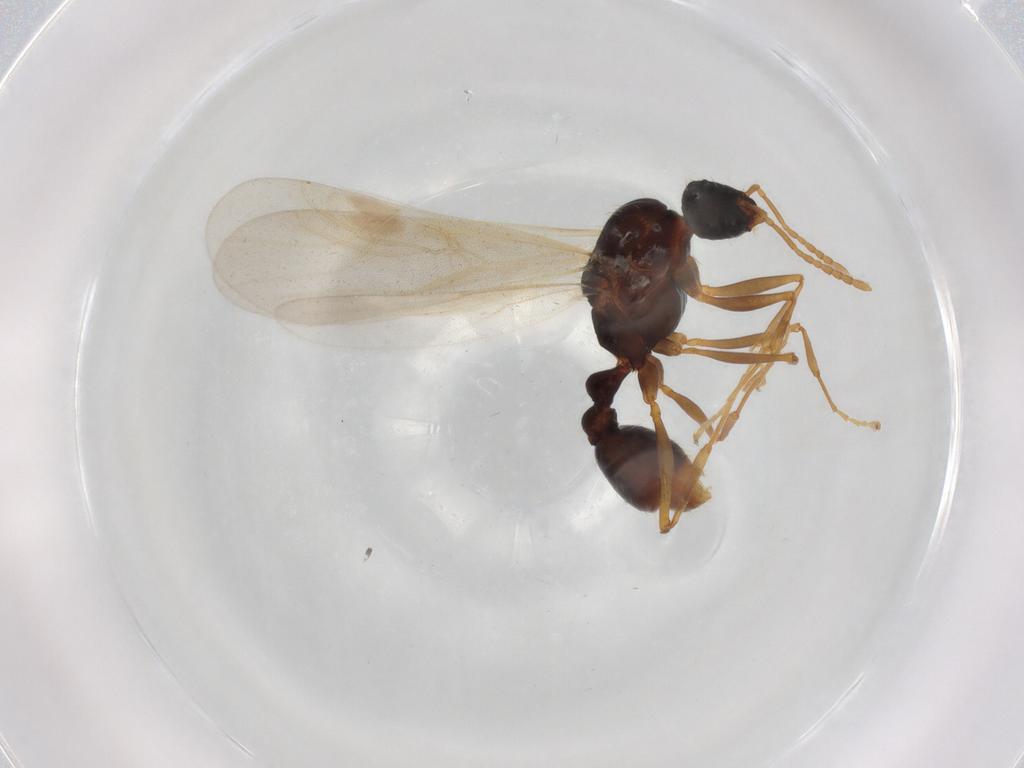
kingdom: Animalia
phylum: Arthropoda
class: Insecta
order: Hymenoptera
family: Formicidae
